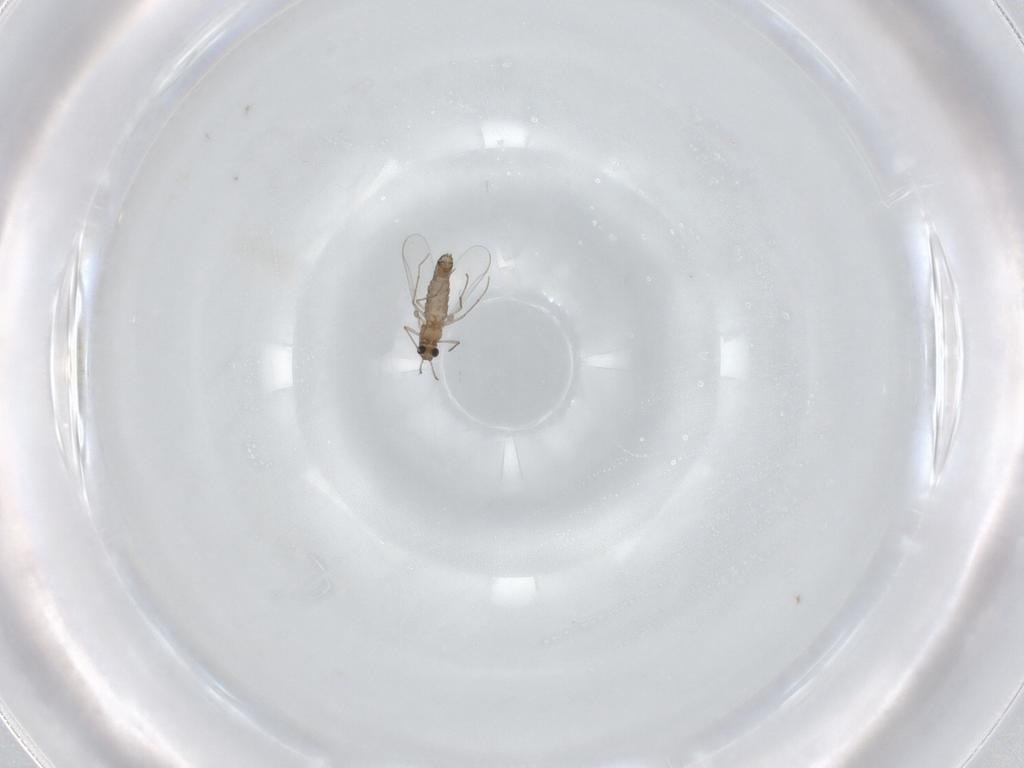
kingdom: Animalia
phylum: Arthropoda
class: Insecta
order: Diptera
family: Chironomidae
